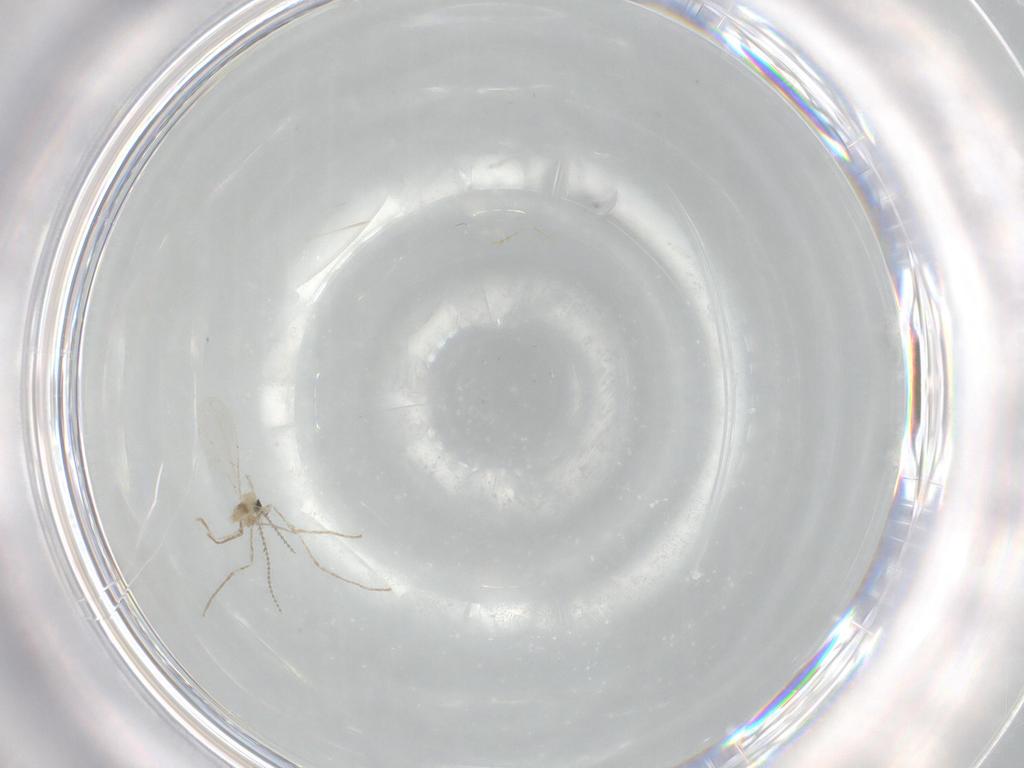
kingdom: Animalia
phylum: Arthropoda
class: Insecta
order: Diptera
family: Cecidomyiidae
